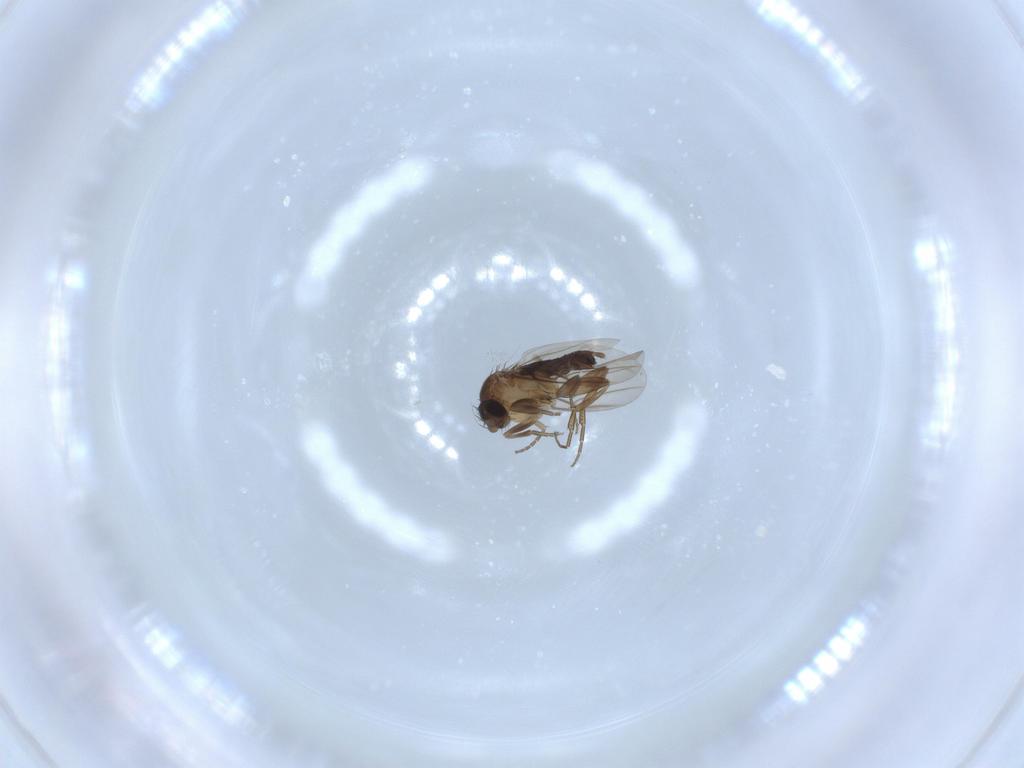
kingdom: Animalia
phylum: Arthropoda
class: Insecta
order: Diptera
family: Phoridae
